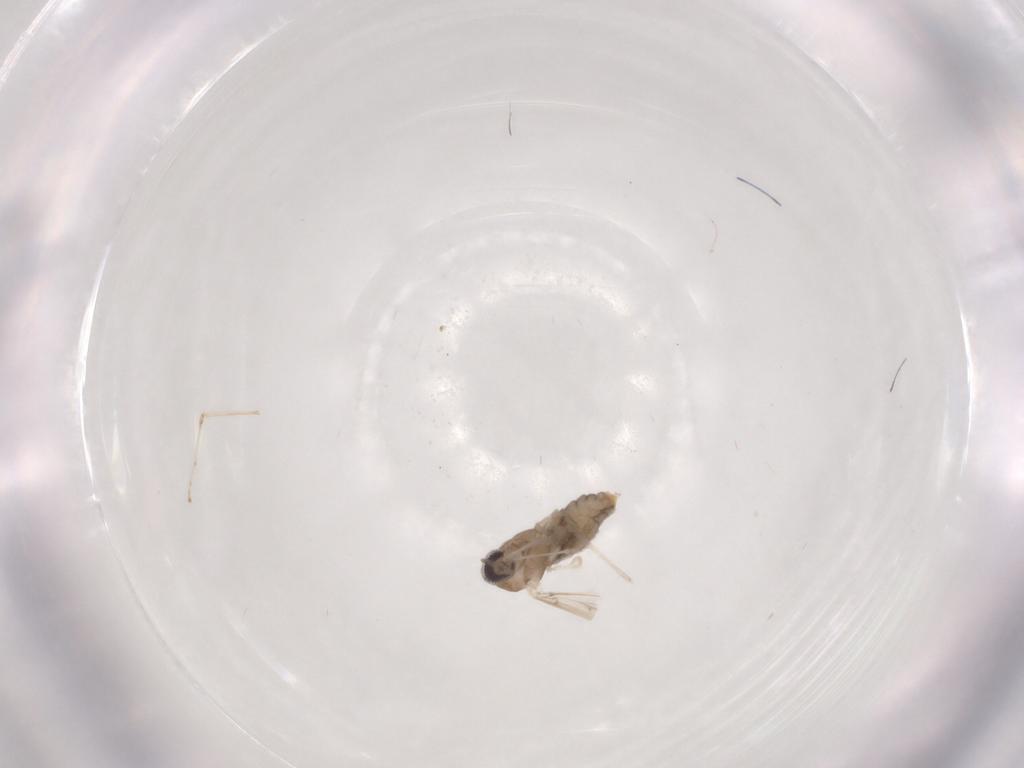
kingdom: Animalia
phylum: Arthropoda
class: Insecta
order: Diptera
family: Cecidomyiidae
